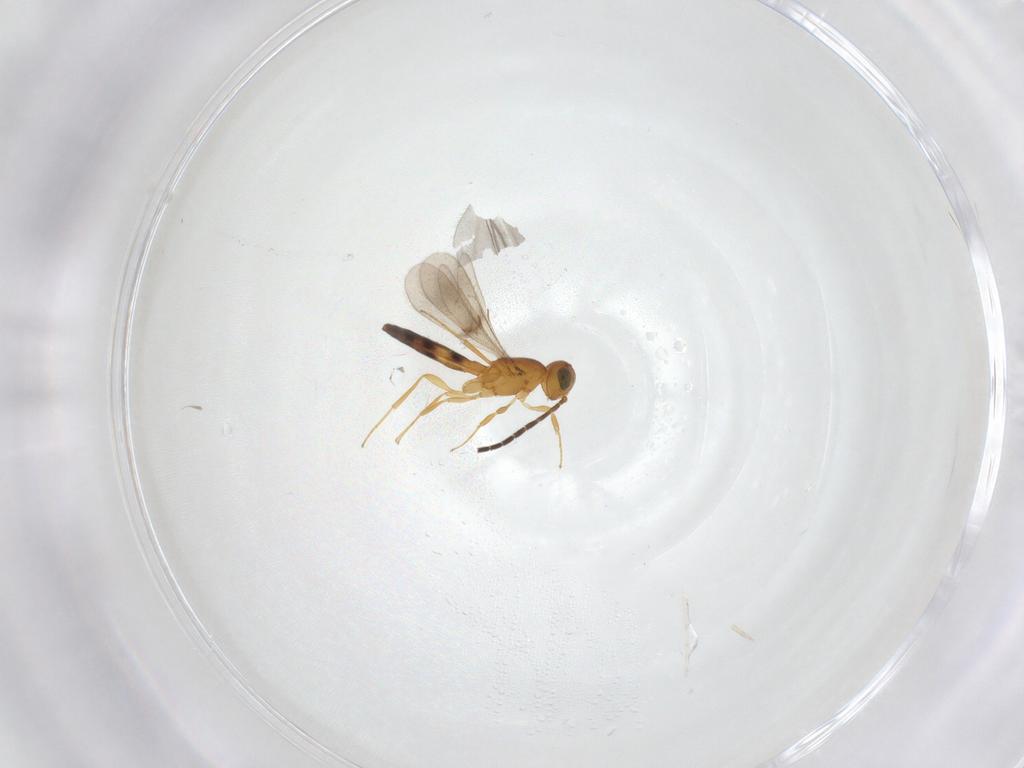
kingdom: Animalia
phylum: Arthropoda
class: Insecta
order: Hymenoptera
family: Scelionidae
